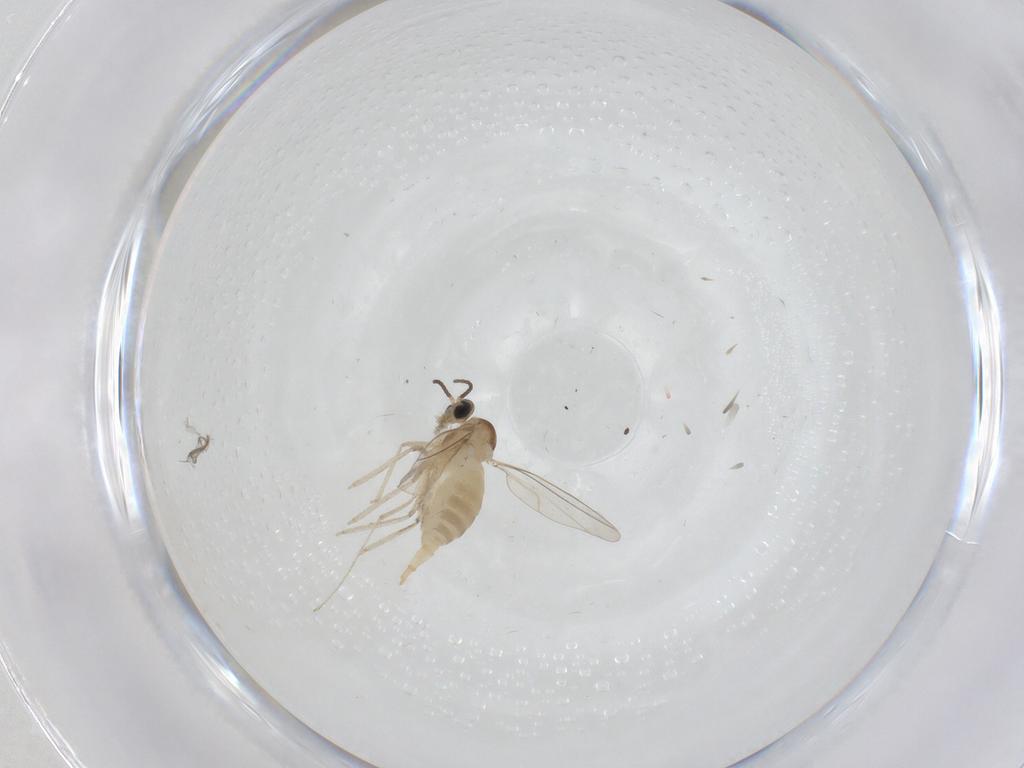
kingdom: Animalia
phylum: Arthropoda
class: Insecta
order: Diptera
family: Cecidomyiidae
